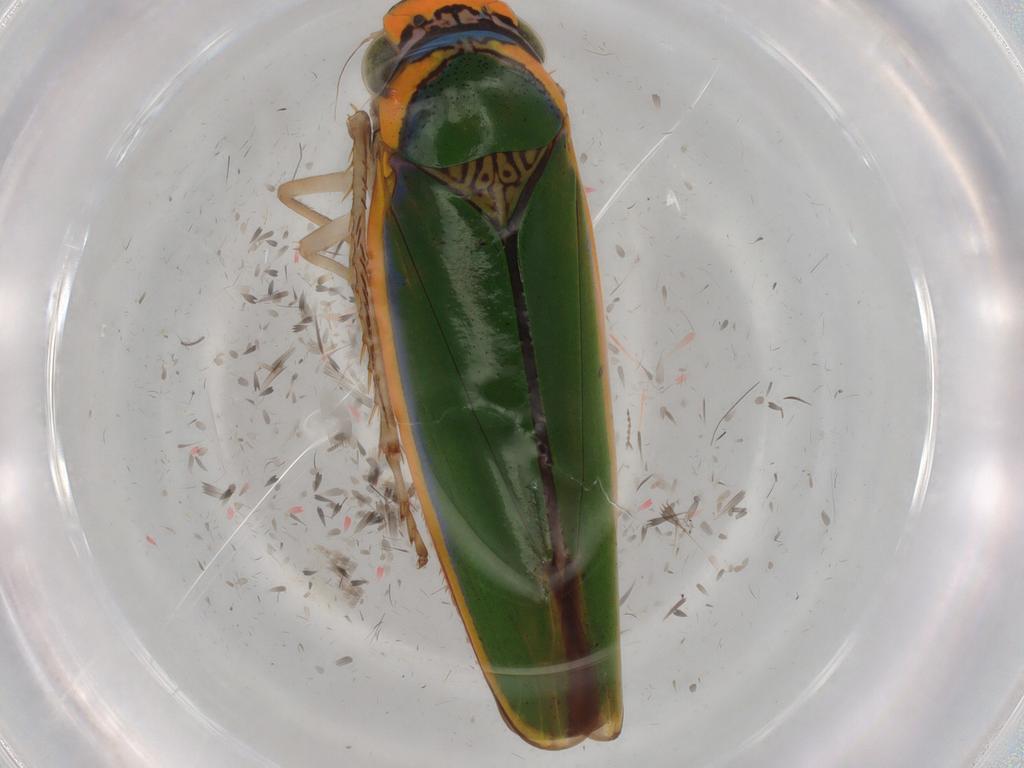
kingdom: Animalia
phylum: Arthropoda
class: Insecta
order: Hemiptera
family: Cicadellidae
